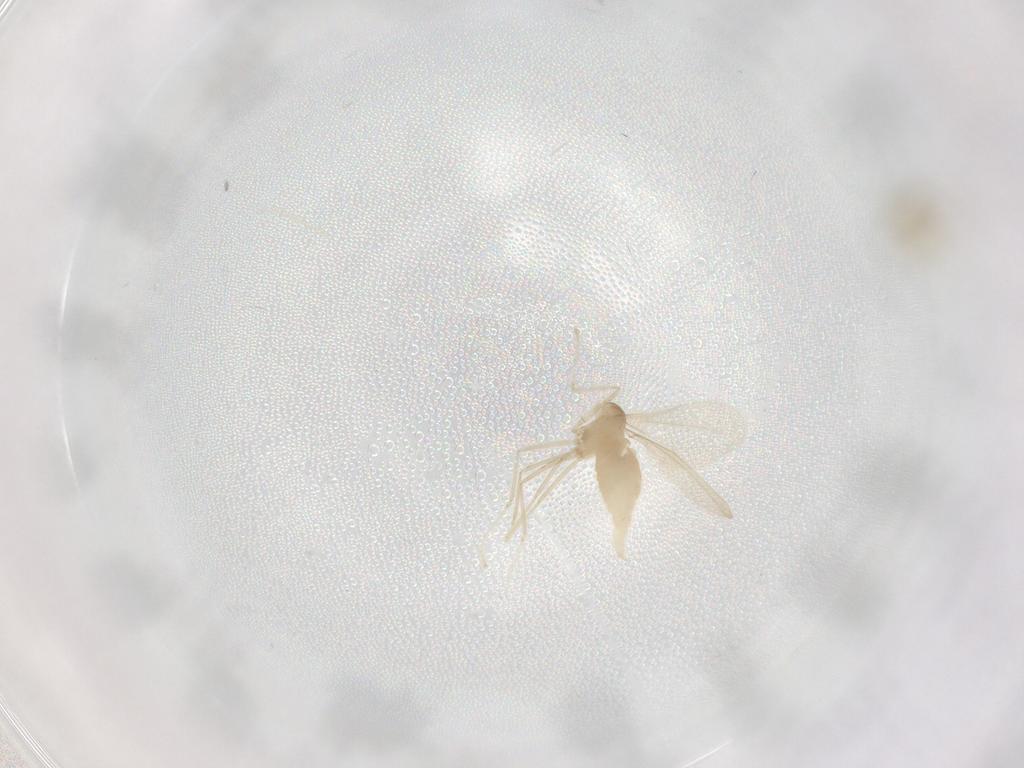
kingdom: Animalia
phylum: Arthropoda
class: Insecta
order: Diptera
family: Cecidomyiidae
